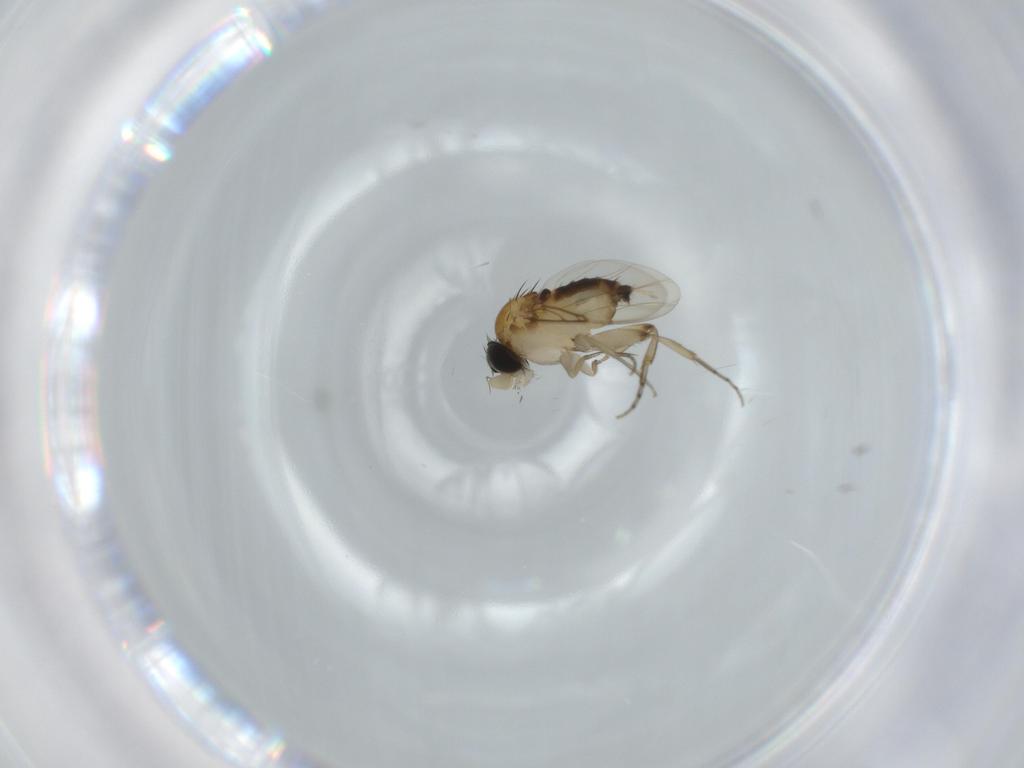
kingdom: Animalia
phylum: Arthropoda
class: Insecta
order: Diptera
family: Phoridae
